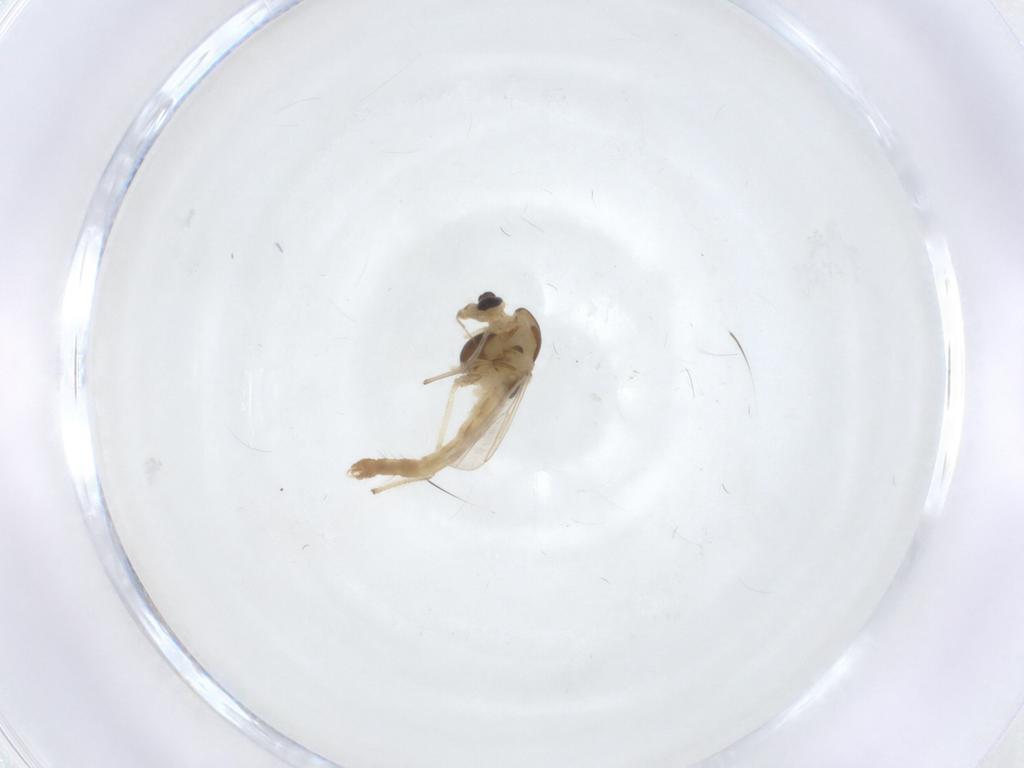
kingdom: Animalia
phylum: Arthropoda
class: Insecta
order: Diptera
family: Chironomidae
